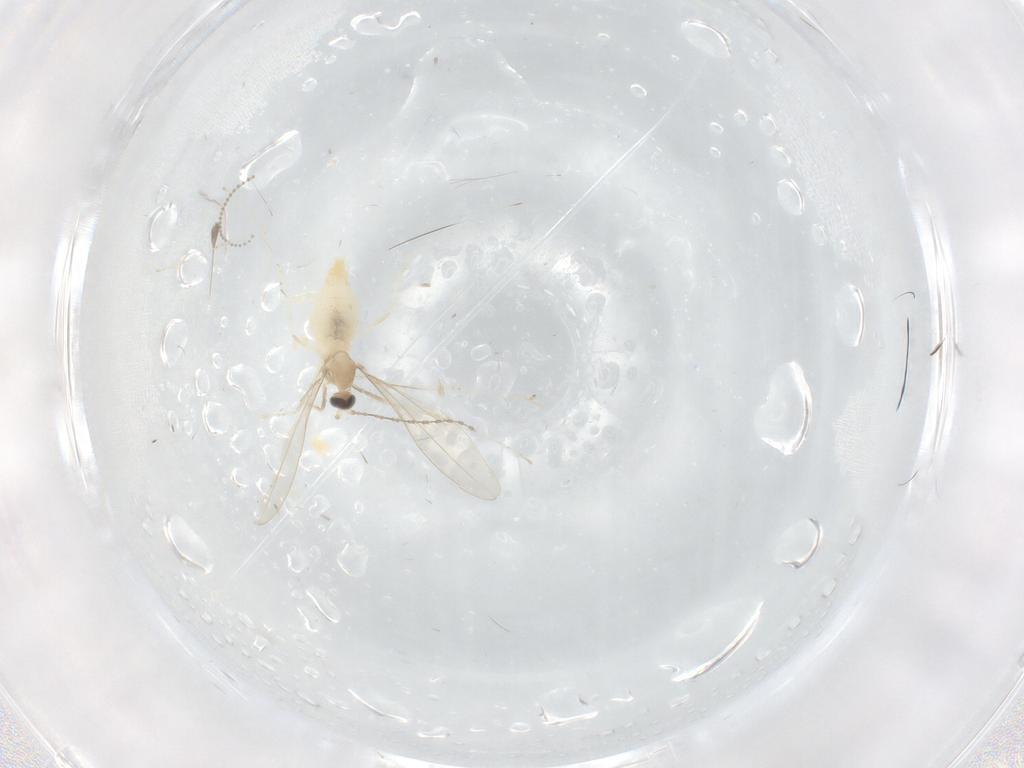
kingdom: Animalia
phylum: Arthropoda
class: Insecta
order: Diptera
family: Cecidomyiidae
